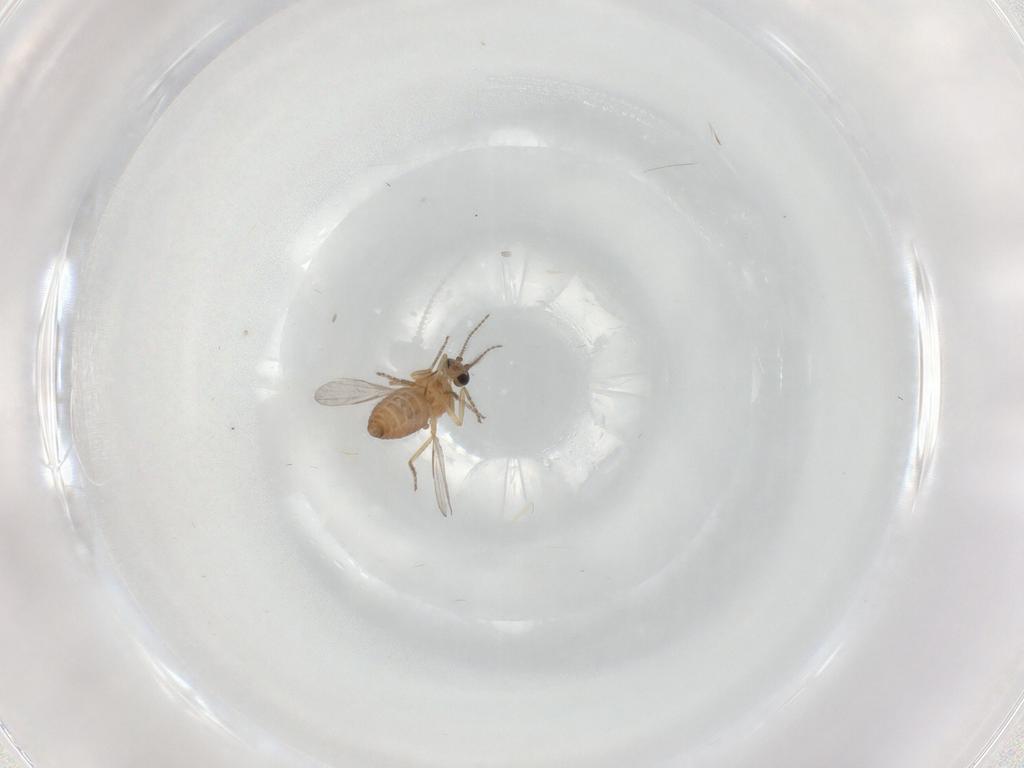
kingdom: Animalia
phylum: Arthropoda
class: Insecta
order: Diptera
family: Ceratopogonidae
